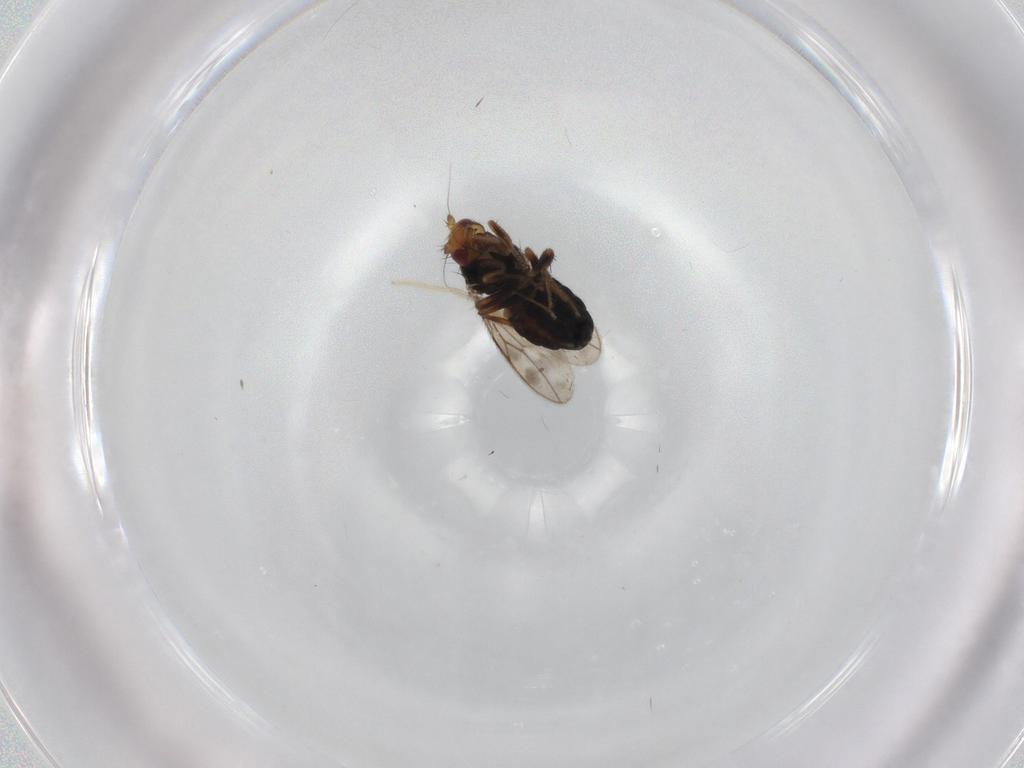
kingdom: Animalia
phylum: Arthropoda
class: Insecta
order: Diptera
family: Sphaeroceridae
